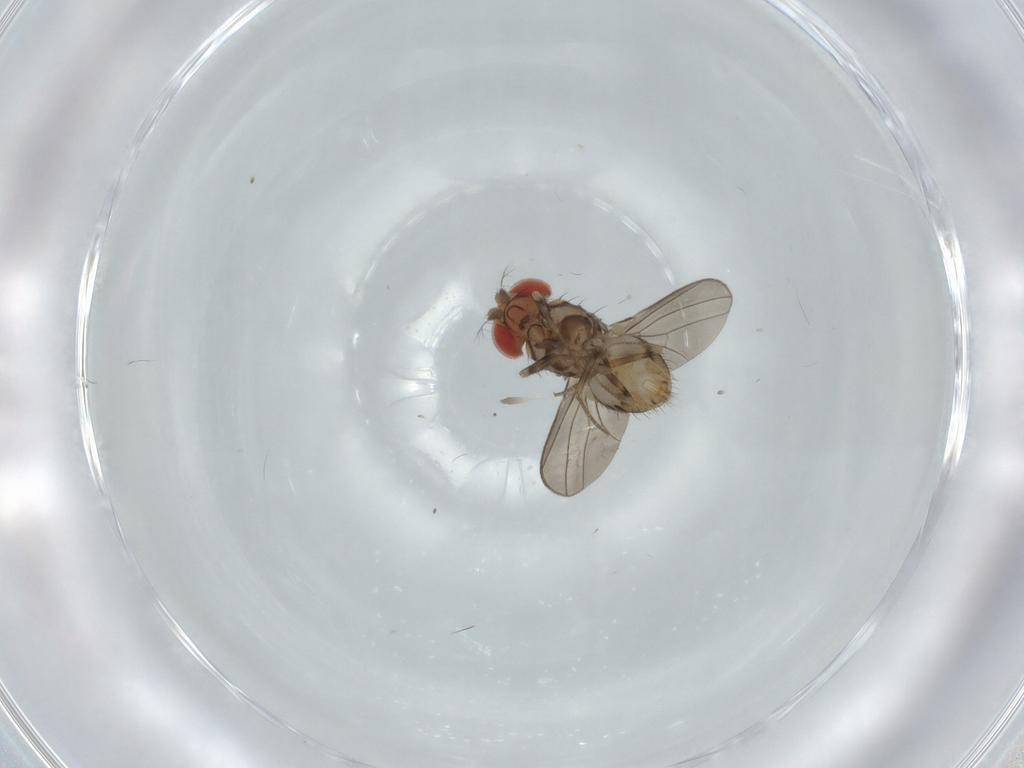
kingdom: Animalia
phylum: Arthropoda
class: Insecta
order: Diptera
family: Drosophilidae
